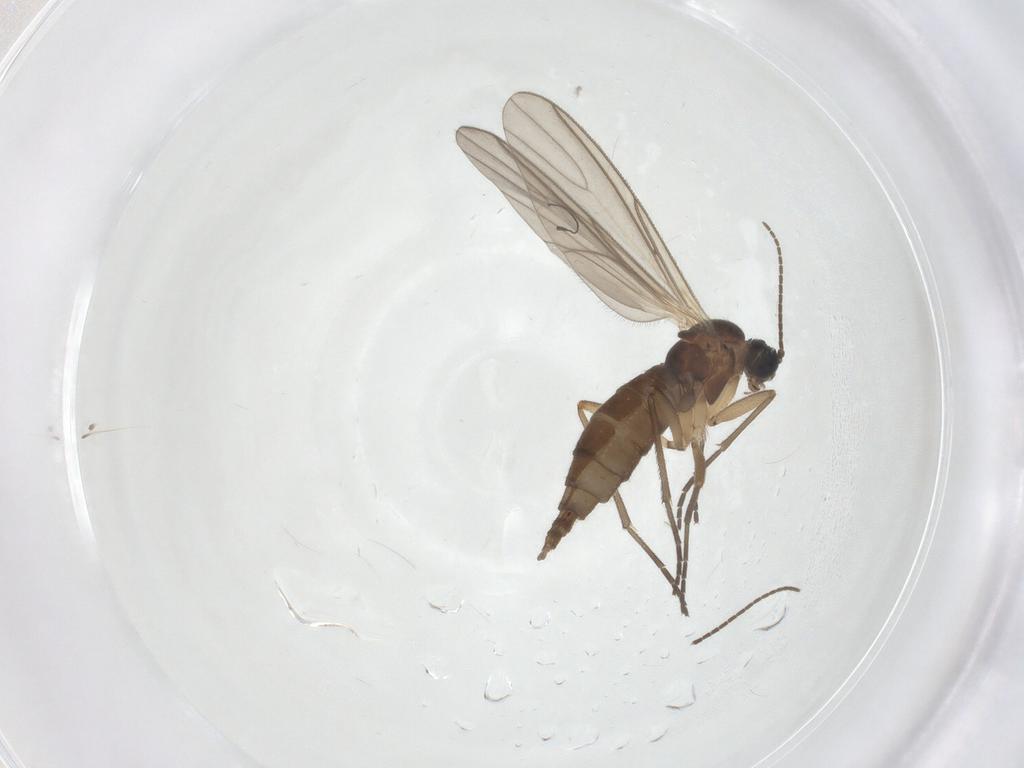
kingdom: Animalia
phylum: Arthropoda
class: Insecta
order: Diptera
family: Sciaridae
